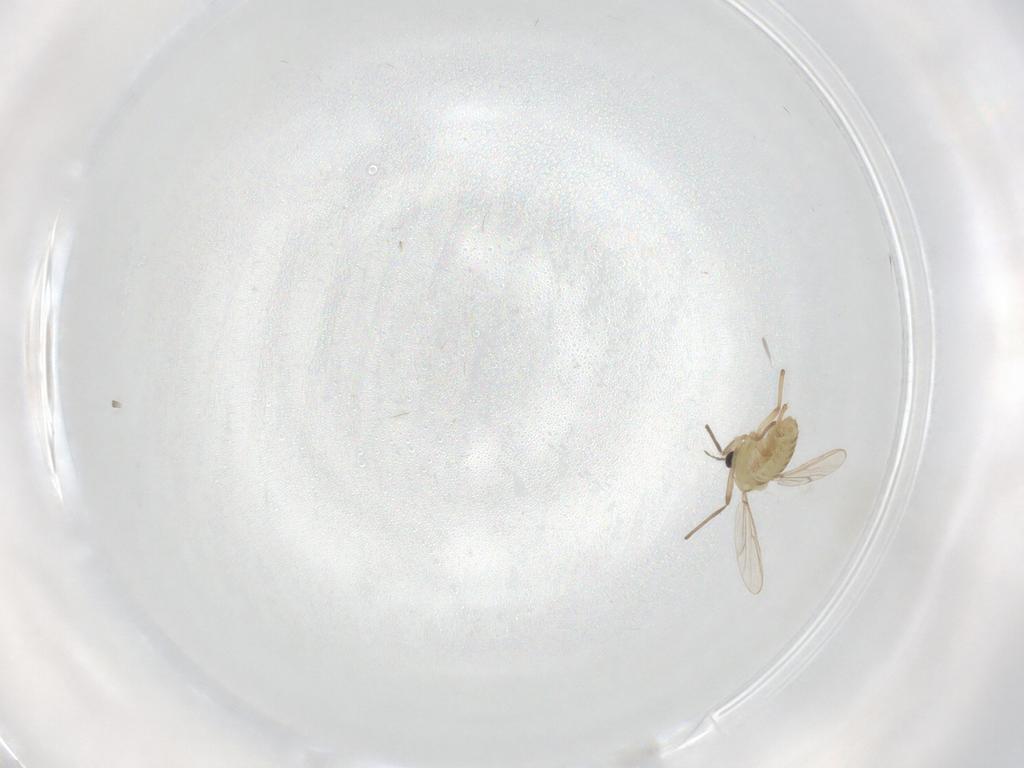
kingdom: Animalia
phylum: Arthropoda
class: Insecta
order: Diptera
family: Chironomidae
